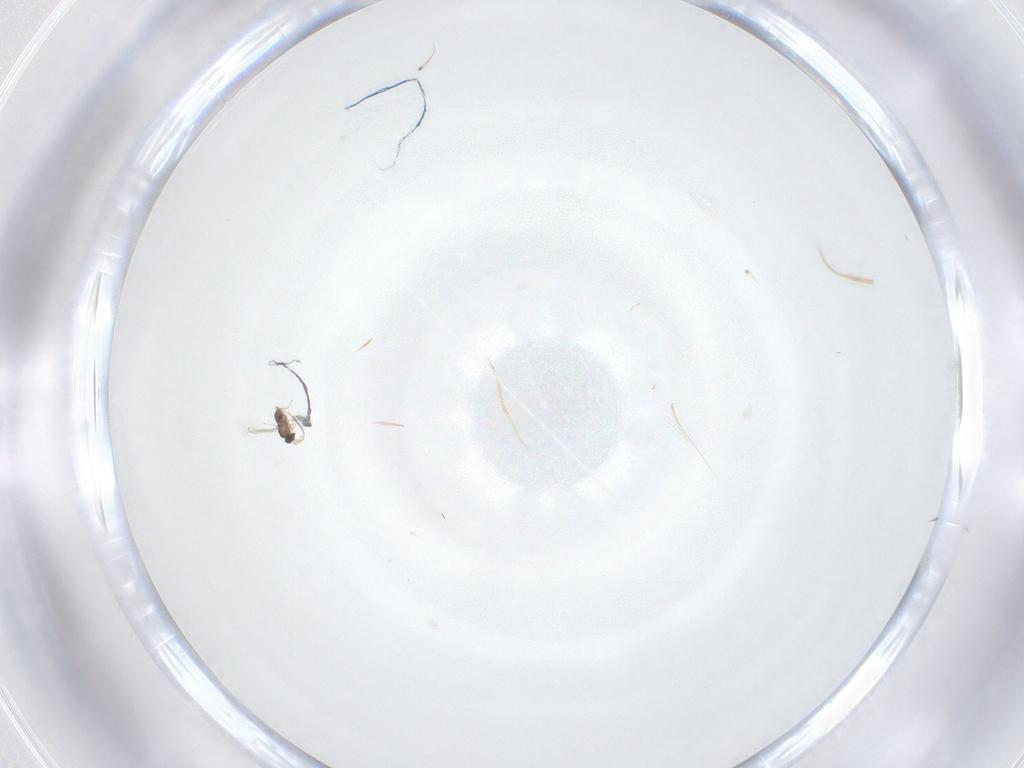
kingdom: Animalia
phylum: Arthropoda
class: Insecta
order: Diptera
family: Sciaridae
